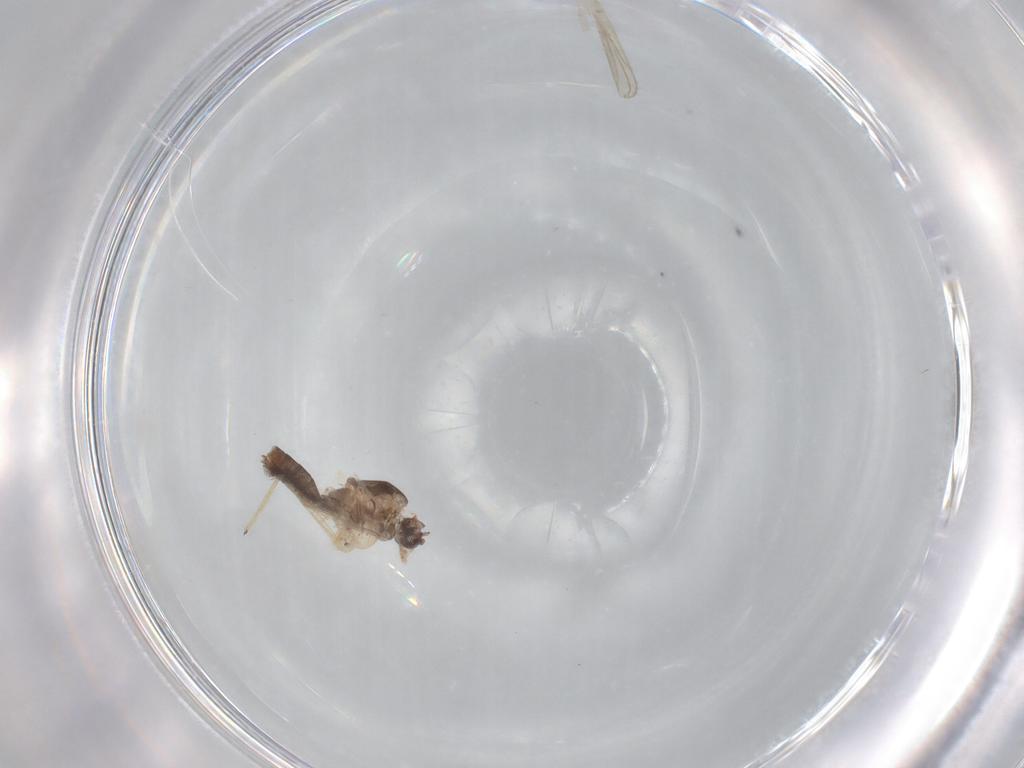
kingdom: Animalia
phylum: Arthropoda
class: Insecta
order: Diptera
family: Chironomidae
